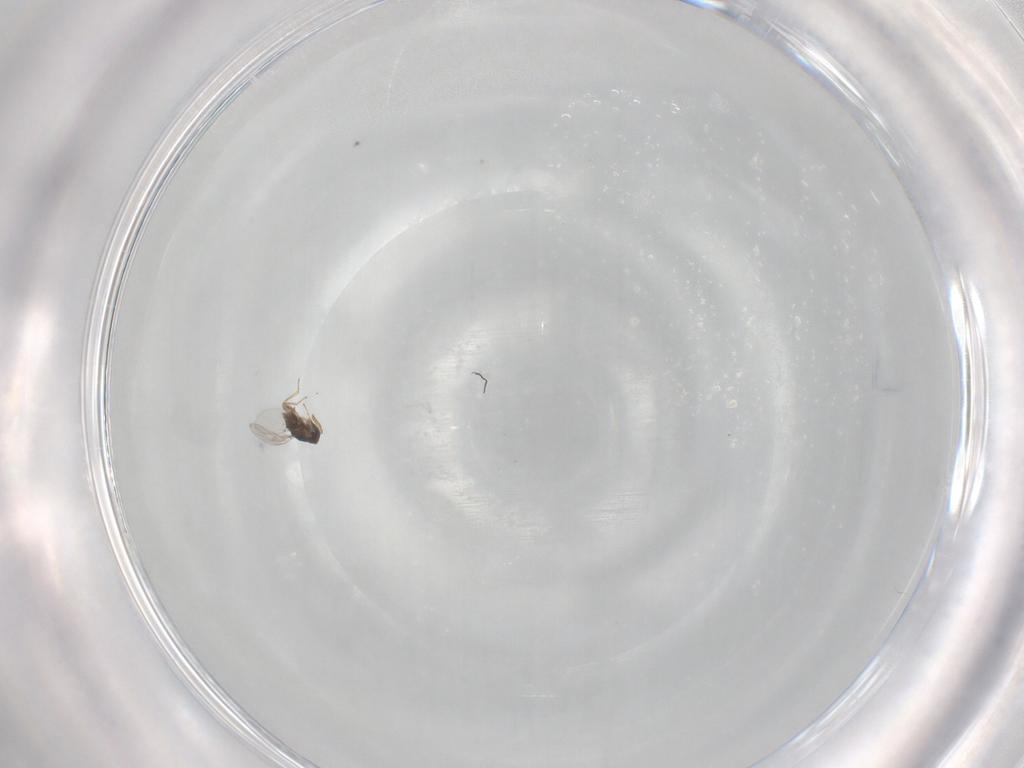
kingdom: Animalia
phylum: Arthropoda
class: Insecta
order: Hymenoptera
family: Encyrtidae
